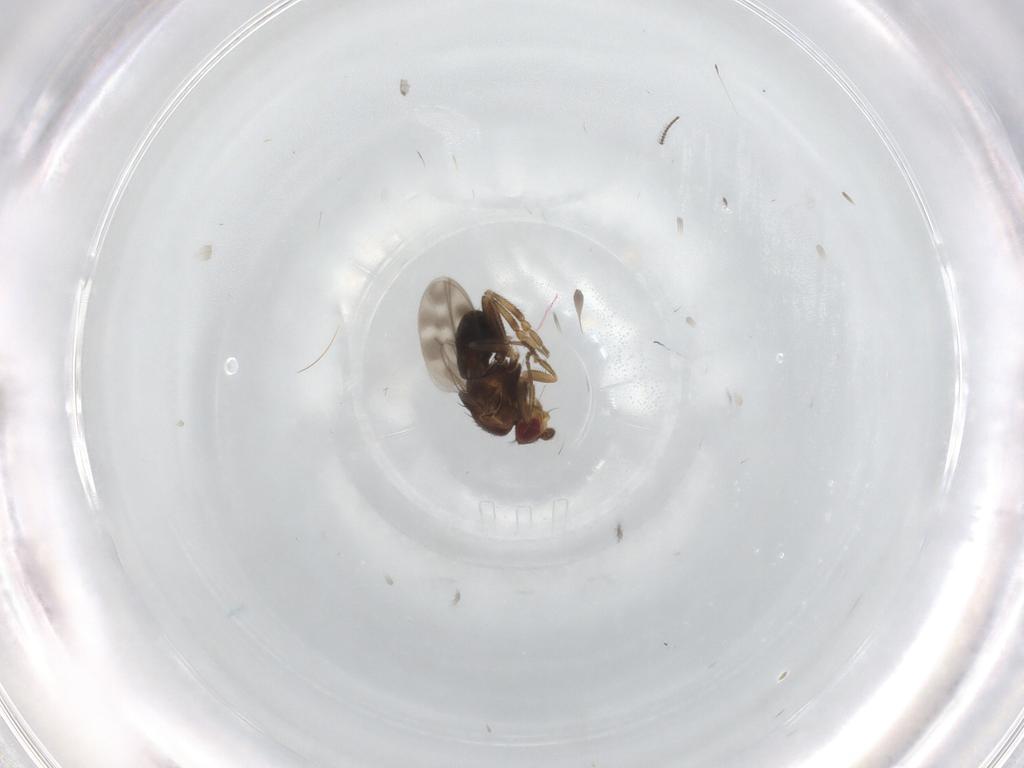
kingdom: Animalia
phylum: Arthropoda
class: Insecta
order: Diptera
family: Sphaeroceridae
